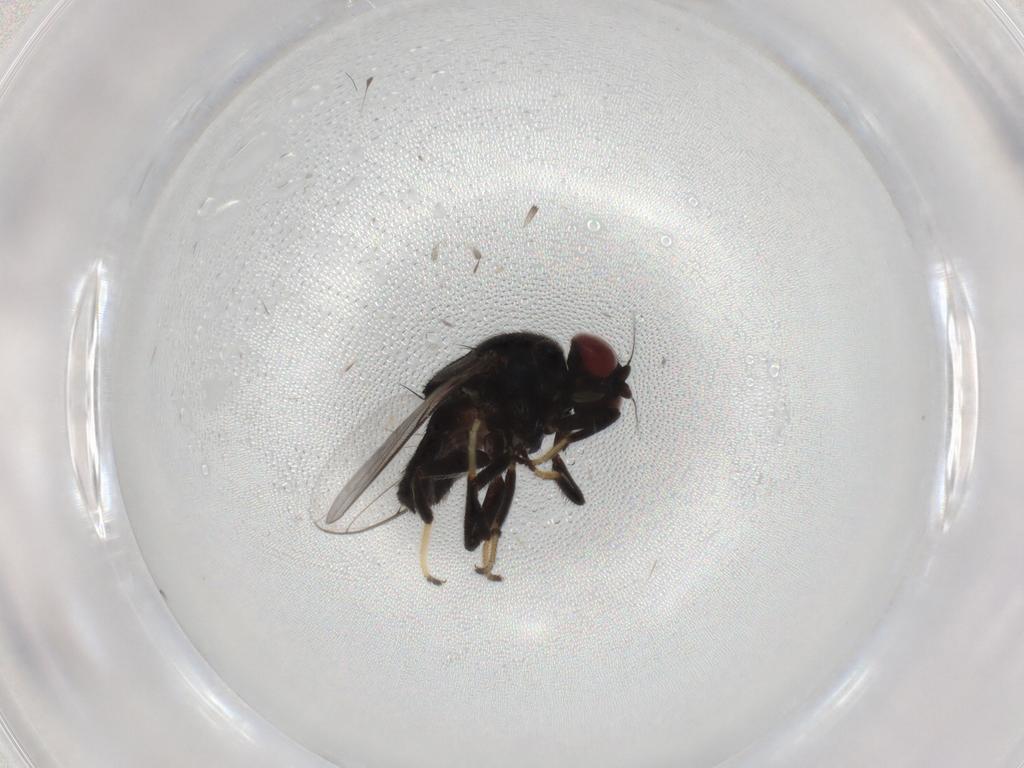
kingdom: Animalia
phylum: Arthropoda
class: Insecta
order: Diptera
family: Chloropidae
